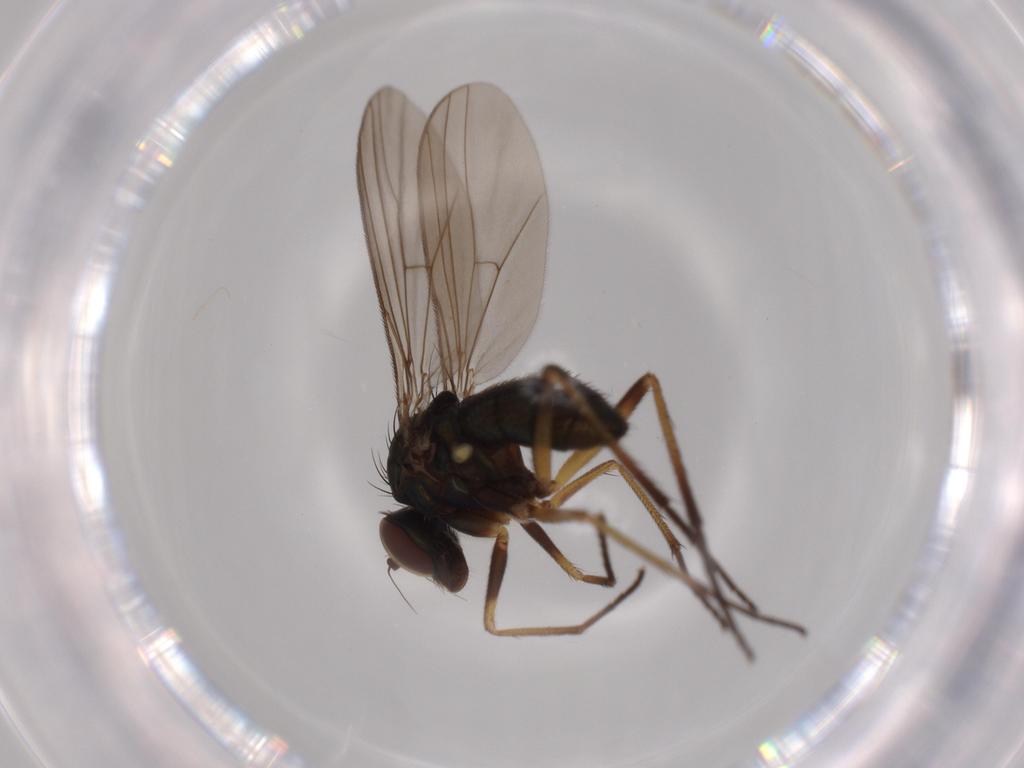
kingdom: Animalia
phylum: Arthropoda
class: Insecta
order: Diptera
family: Dolichopodidae
